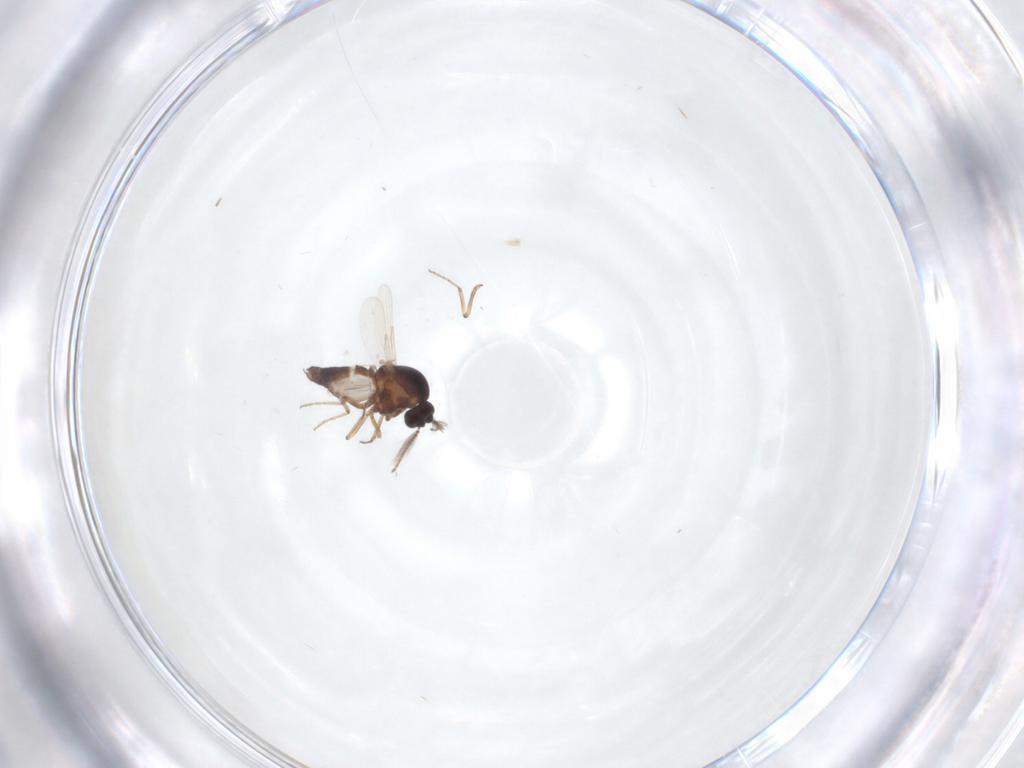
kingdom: Animalia
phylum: Arthropoda
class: Insecta
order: Diptera
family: Ceratopogonidae
